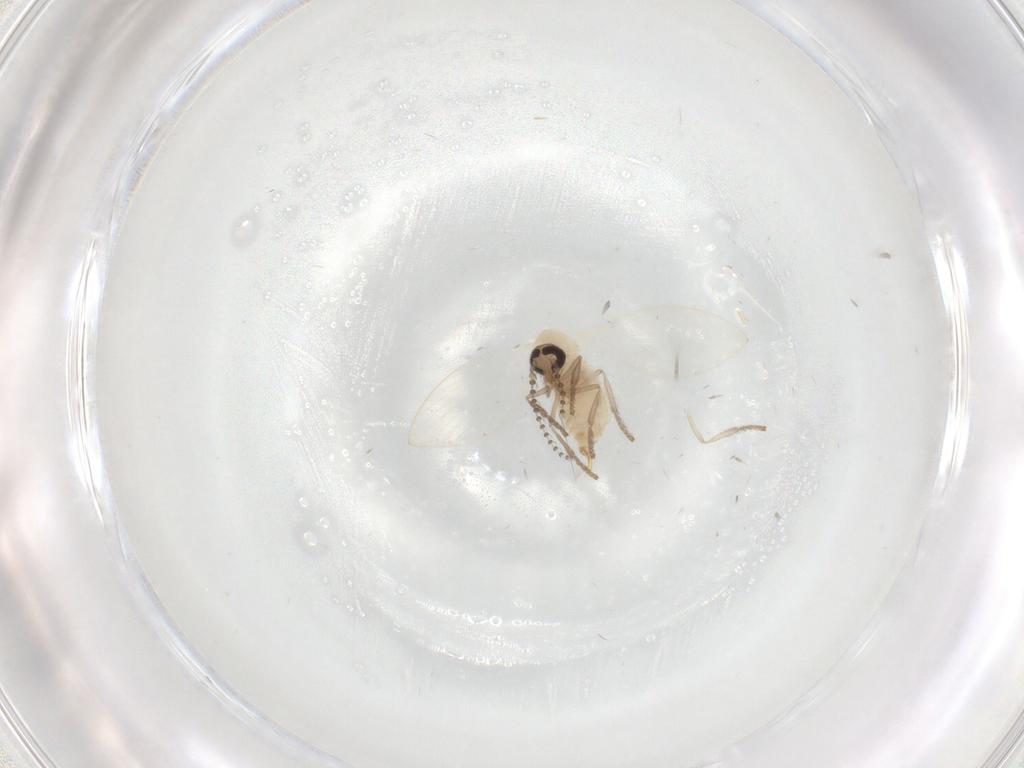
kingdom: Animalia
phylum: Arthropoda
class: Insecta
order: Diptera
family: Psychodidae
